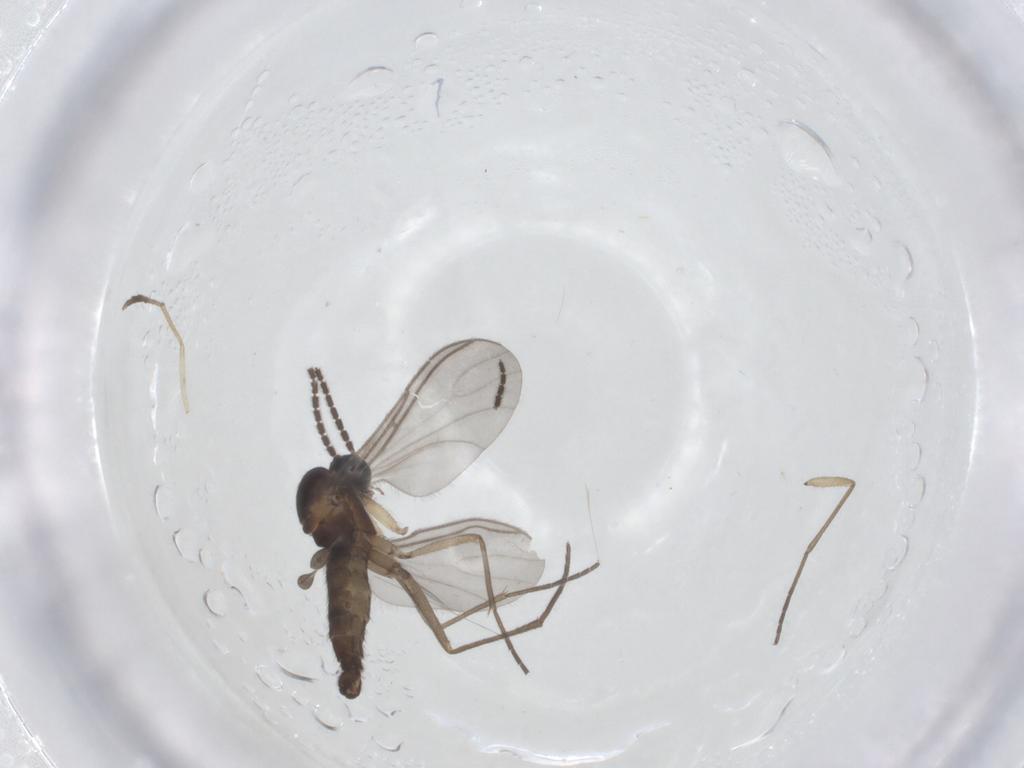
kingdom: Animalia
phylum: Arthropoda
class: Insecta
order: Diptera
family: Sciaridae
